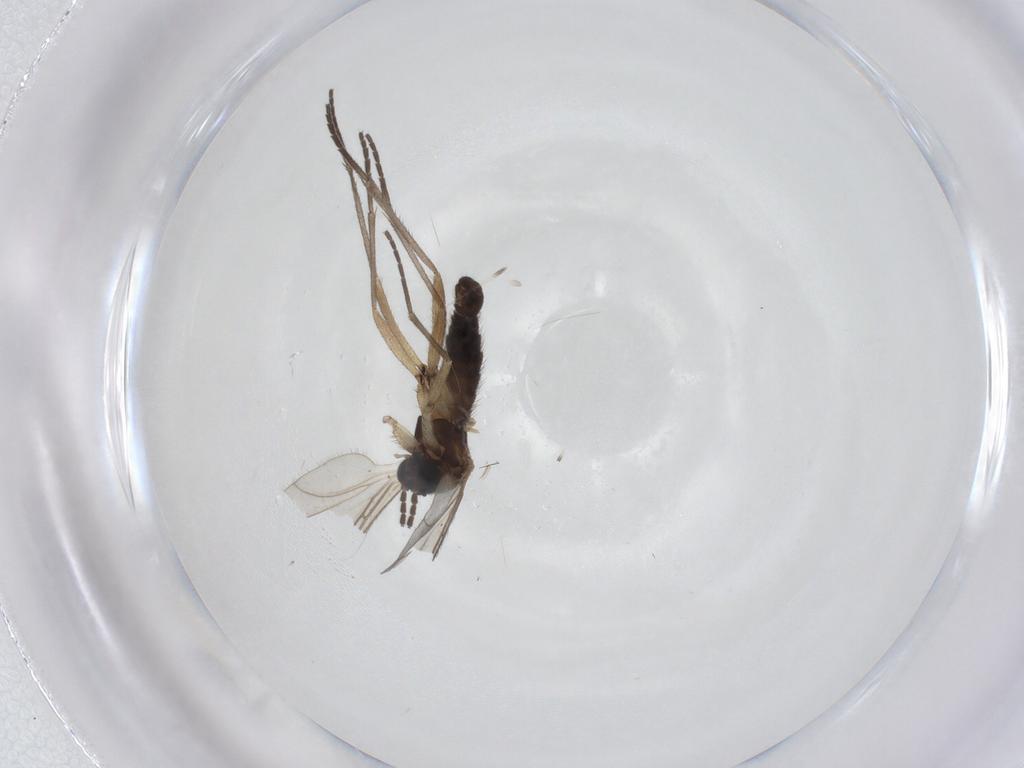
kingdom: Animalia
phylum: Arthropoda
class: Insecta
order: Diptera
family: Sciaridae
